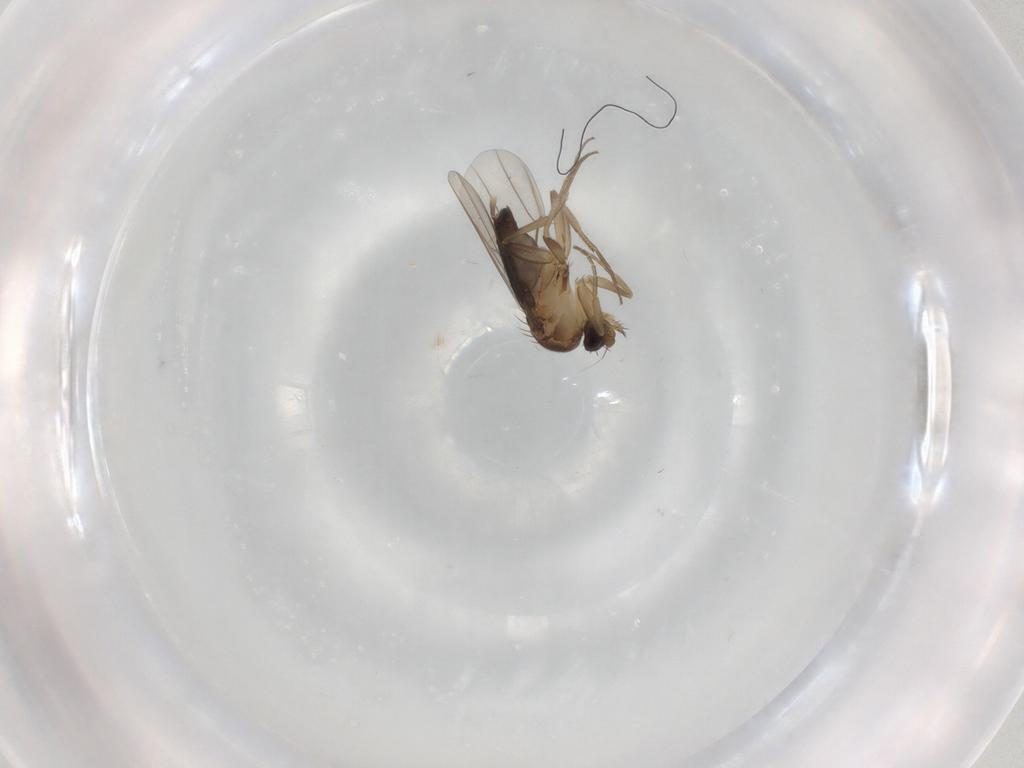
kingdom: Animalia
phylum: Arthropoda
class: Insecta
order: Diptera
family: Phoridae
